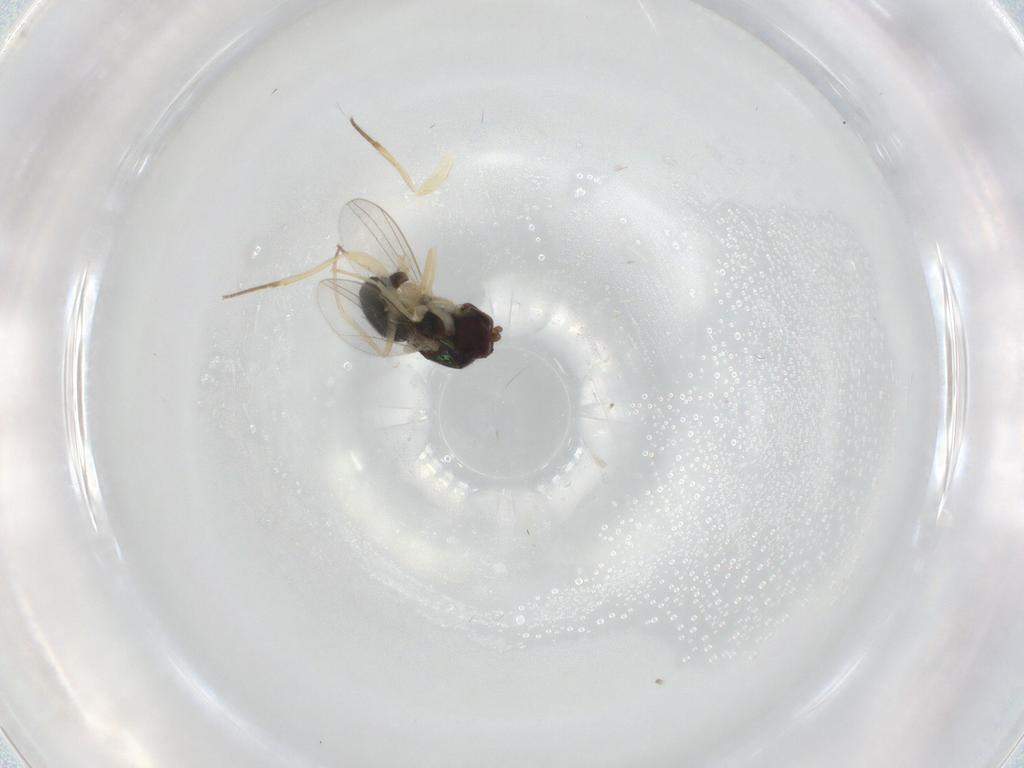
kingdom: Animalia
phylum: Arthropoda
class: Insecta
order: Diptera
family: Dolichopodidae
